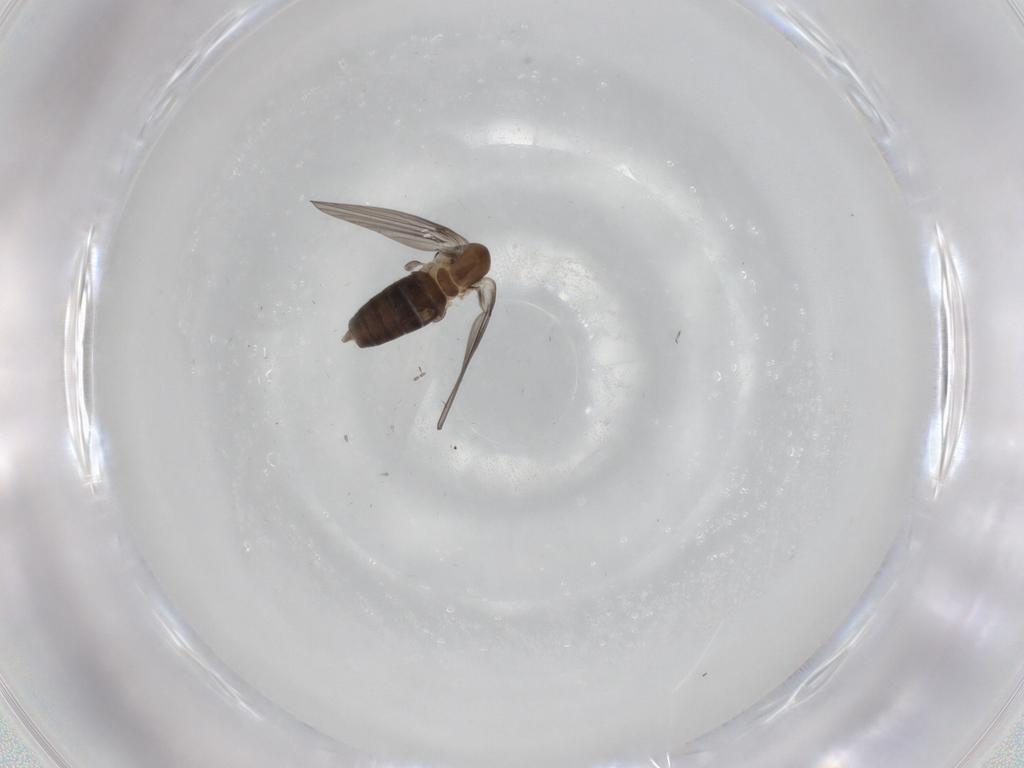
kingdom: Animalia
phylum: Arthropoda
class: Insecta
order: Diptera
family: Psychodidae
